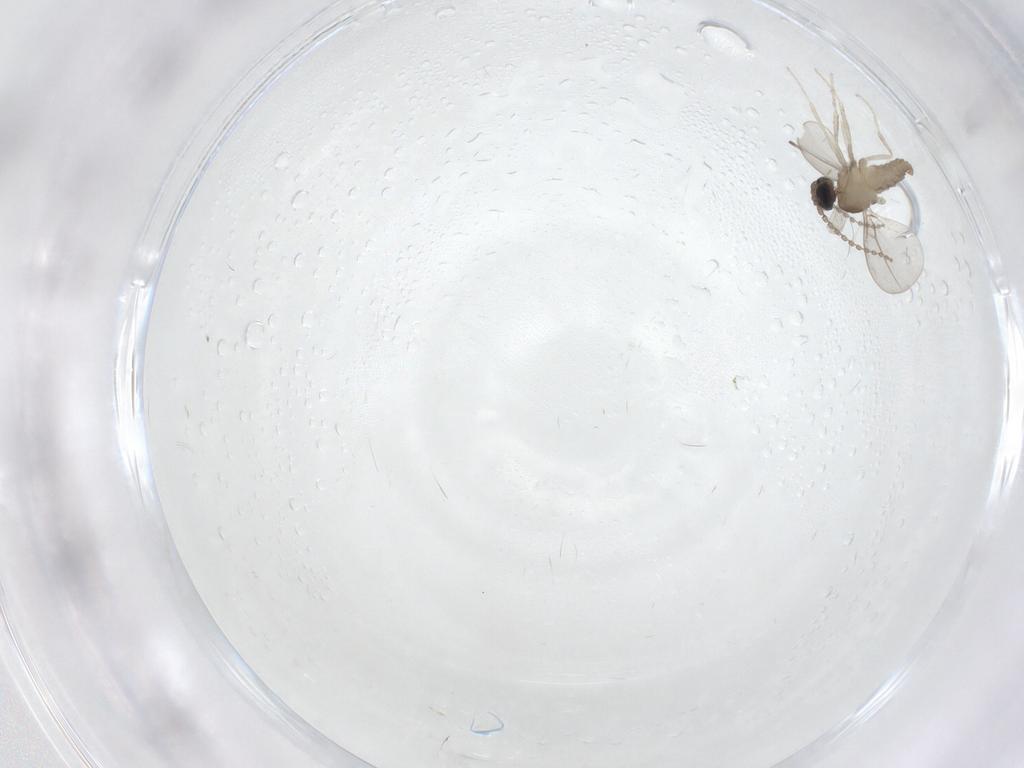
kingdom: Animalia
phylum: Arthropoda
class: Insecta
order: Diptera
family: Cecidomyiidae
